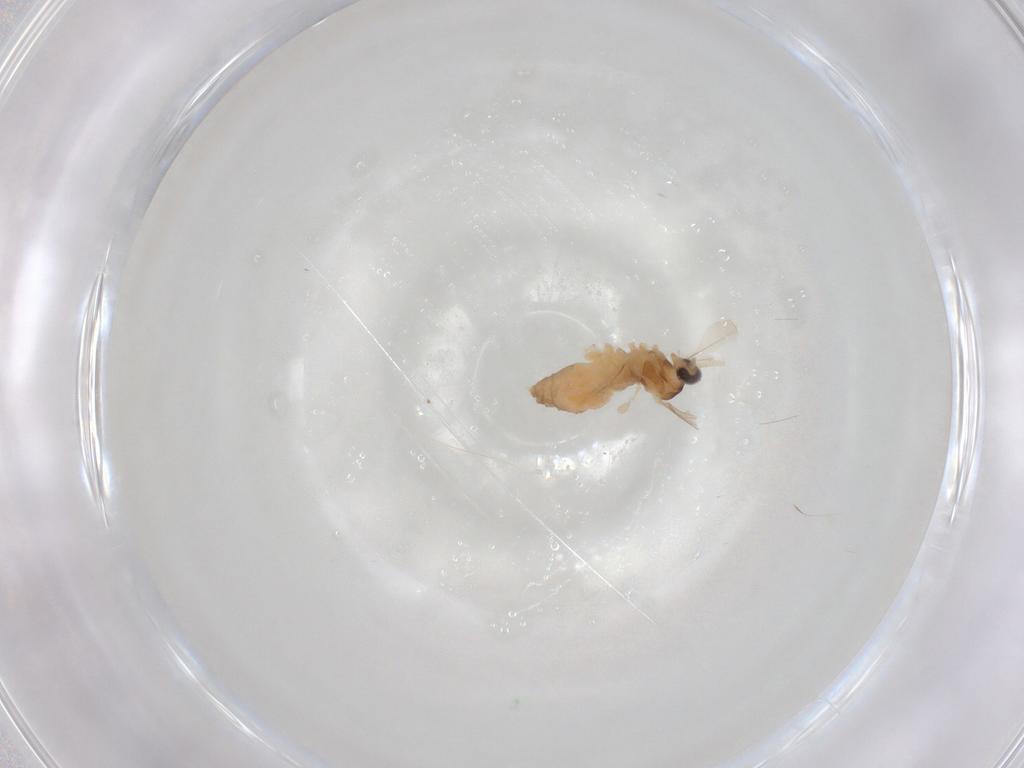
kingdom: Animalia
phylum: Arthropoda
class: Insecta
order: Diptera
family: Cecidomyiidae
